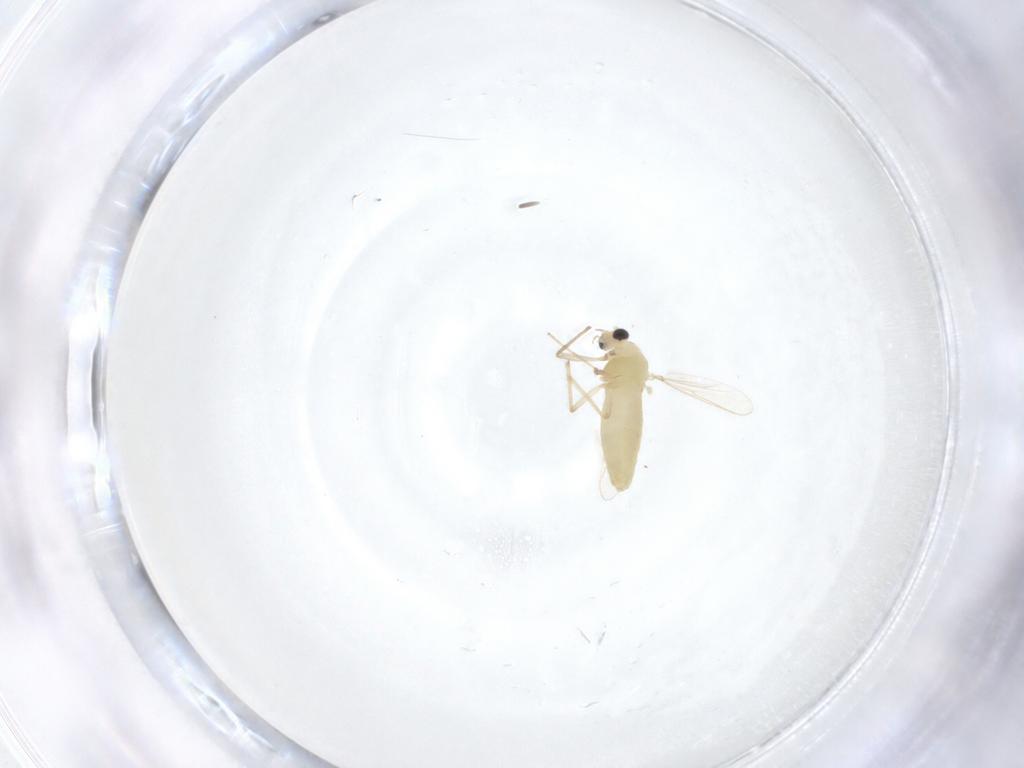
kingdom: Animalia
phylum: Arthropoda
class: Insecta
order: Diptera
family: Chironomidae
